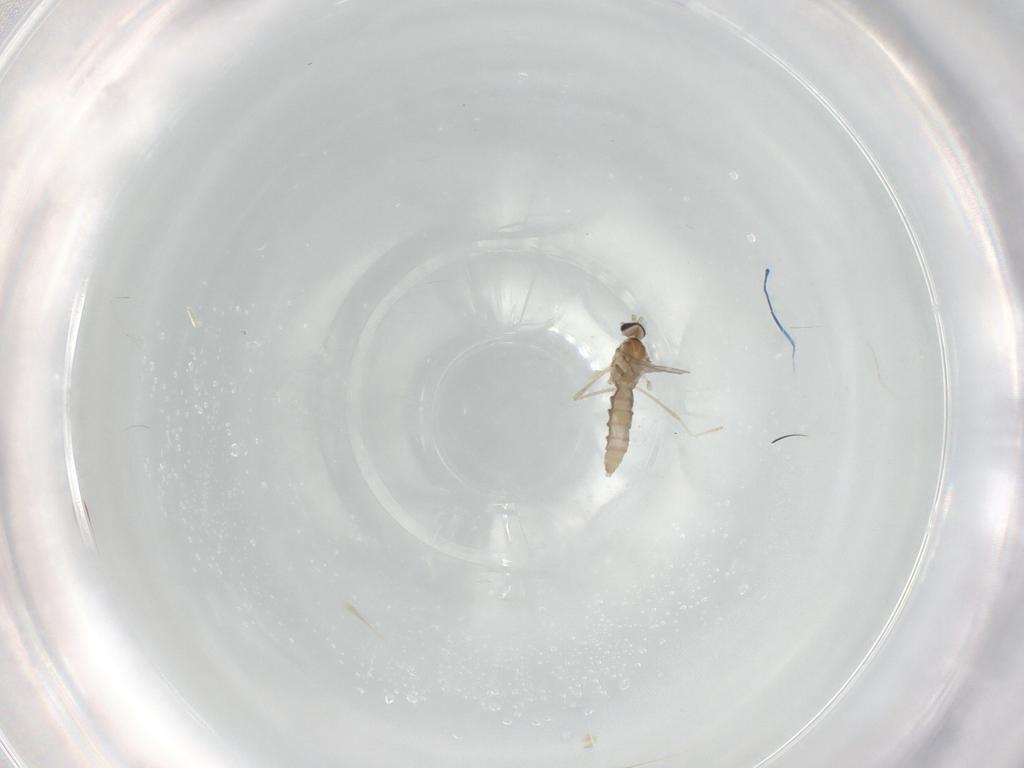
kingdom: Animalia
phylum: Arthropoda
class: Insecta
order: Diptera
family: Cecidomyiidae
